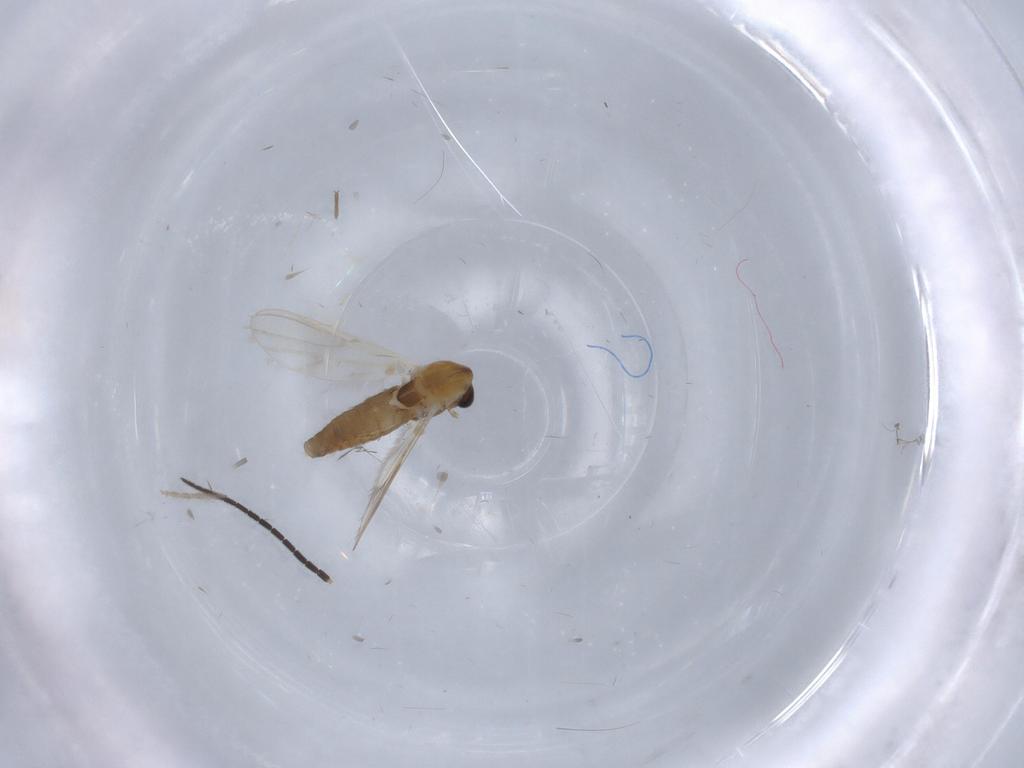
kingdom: Animalia
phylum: Arthropoda
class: Insecta
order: Diptera
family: Chironomidae
